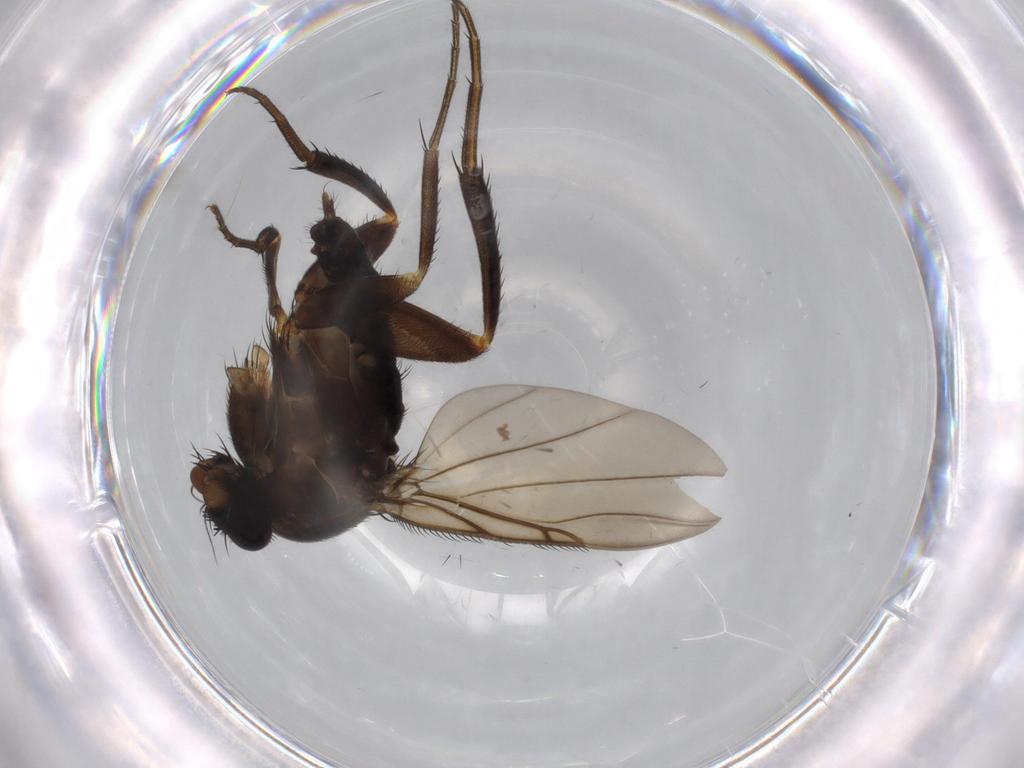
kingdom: Animalia
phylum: Arthropoda
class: Insecta
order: Diptera
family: Phoridae
